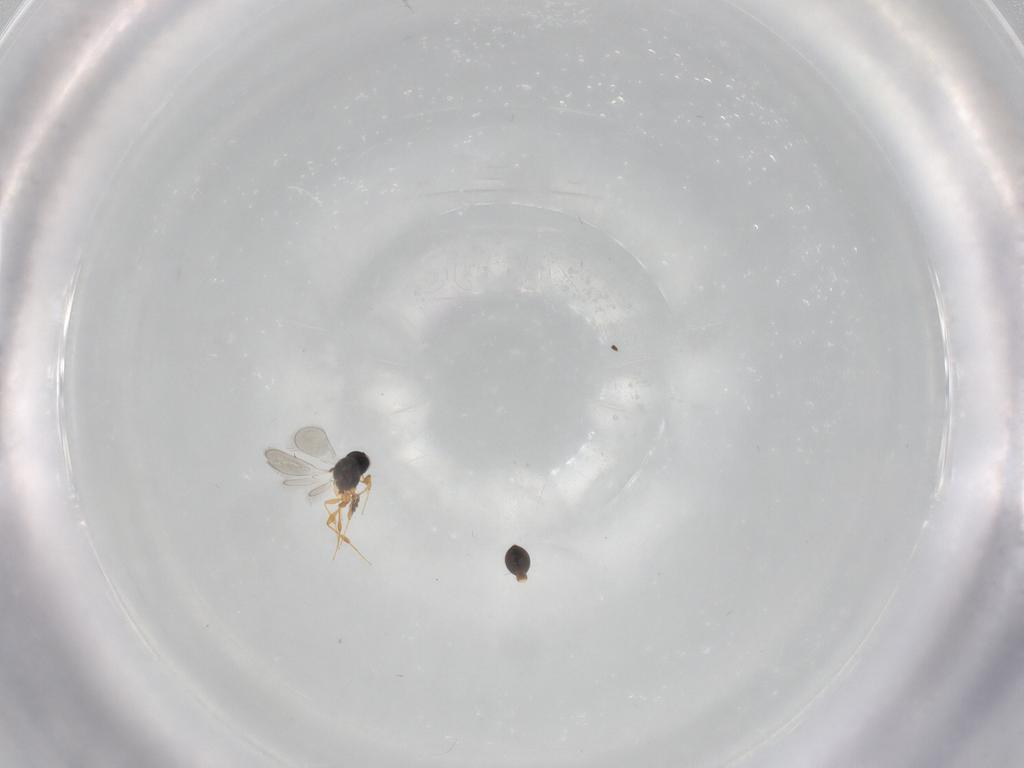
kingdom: Animalia
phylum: Arthropoda
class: Insecta
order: Hymenoptera
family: Platygastridae
